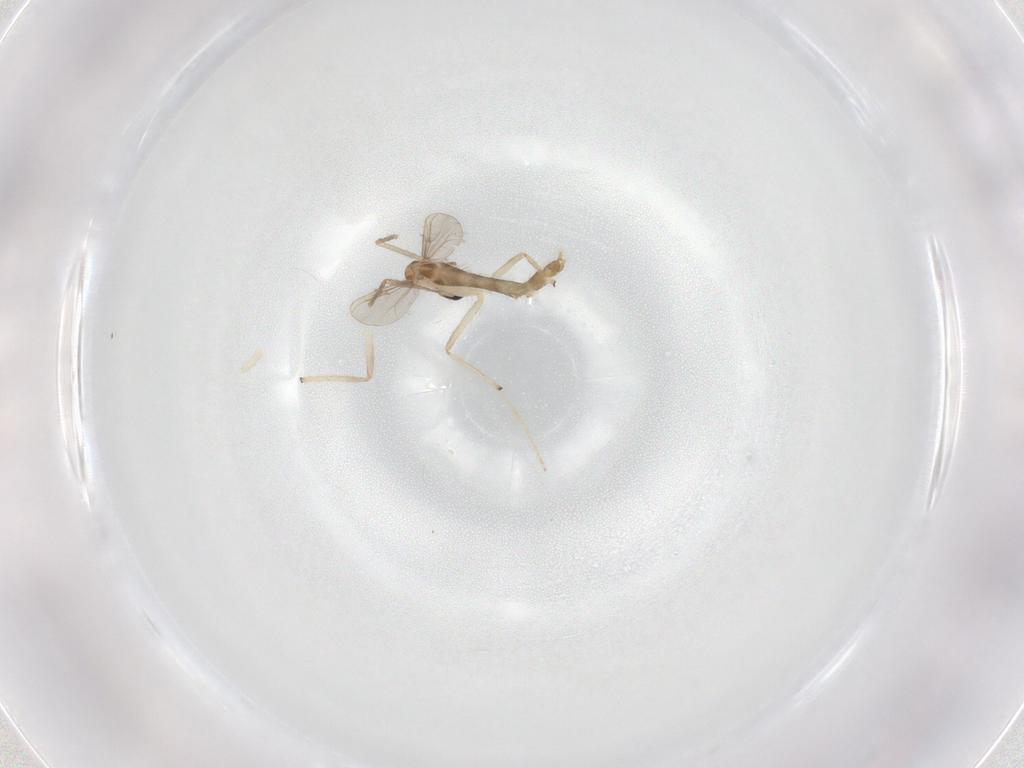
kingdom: Animalia
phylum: Arthropoda
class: Insecta
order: Diptera
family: Chironomidae
